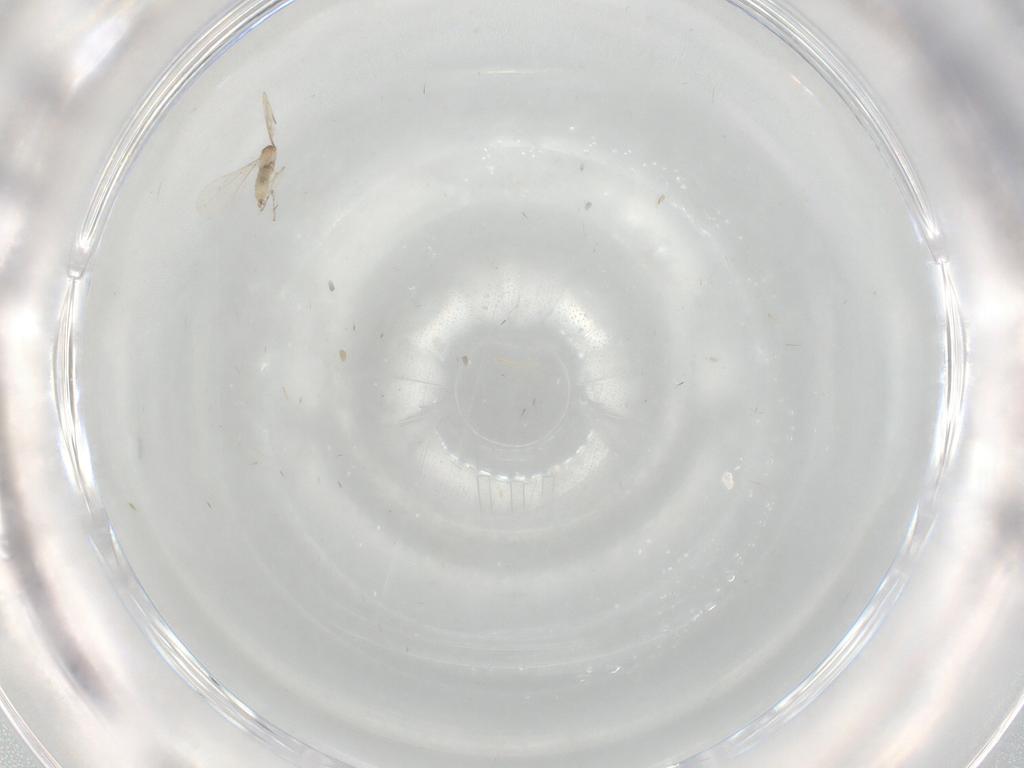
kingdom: Animalia
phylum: Arthropoda
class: Insecta
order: Diptera
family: Cecidomyiidae
